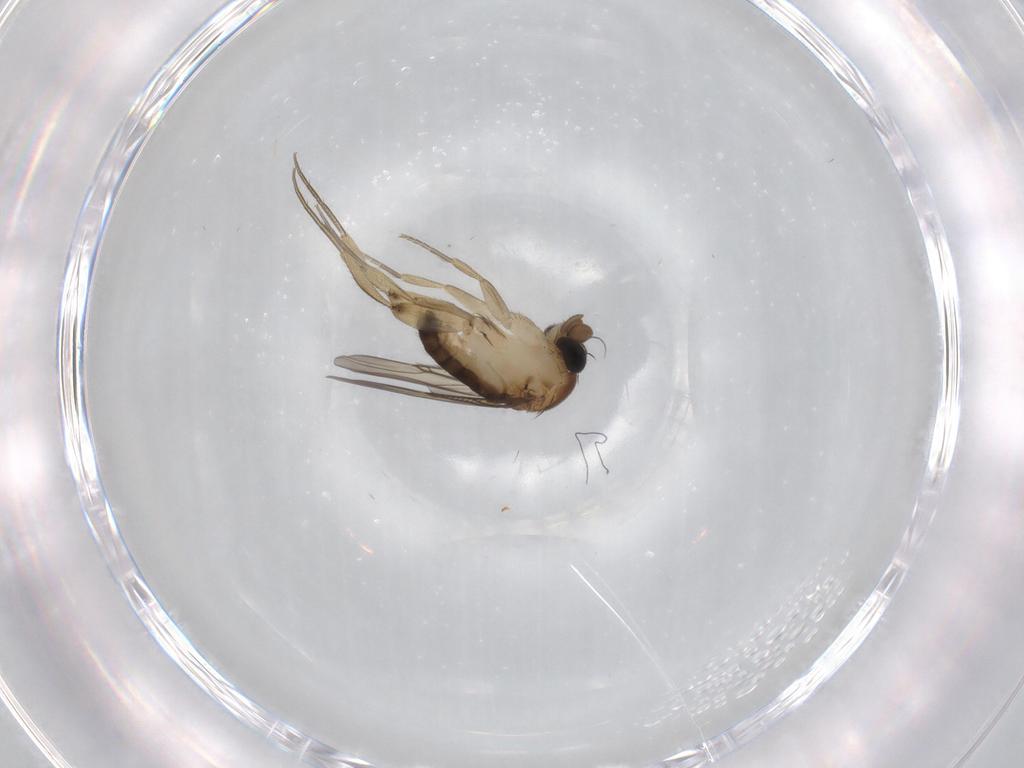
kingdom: Animalia
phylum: Arthropoda
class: Insecta
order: Diptera
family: Phoridae
